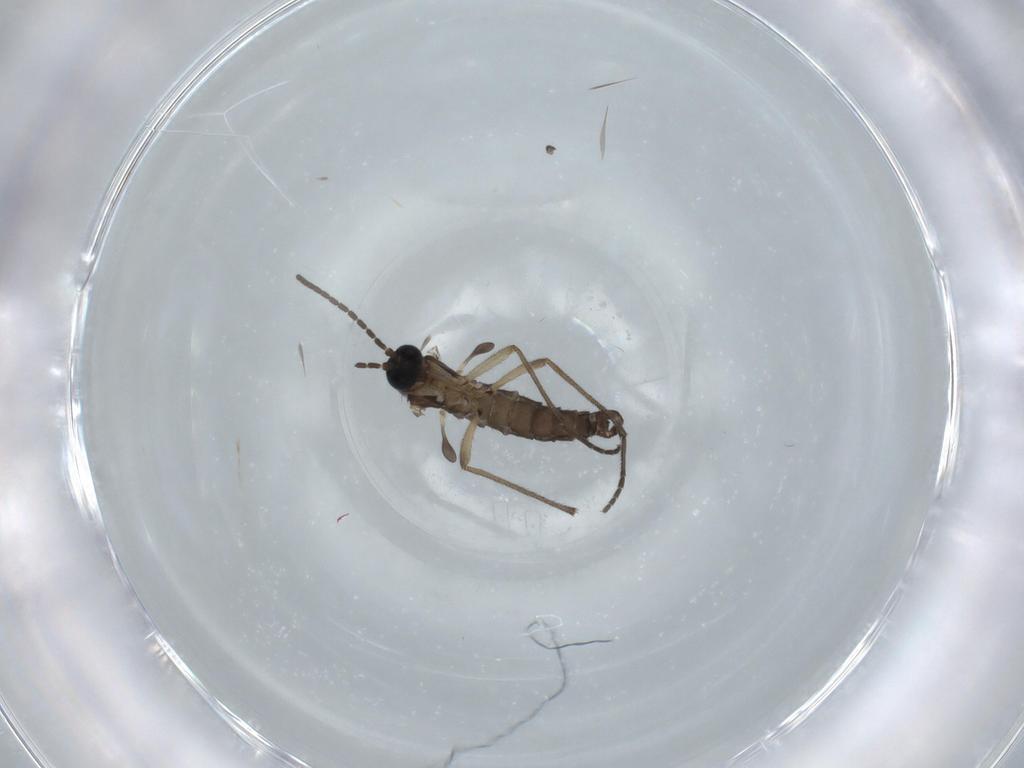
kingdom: Animalia
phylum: Arthropoda
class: Insecta
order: Diptera
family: Sciaridae
